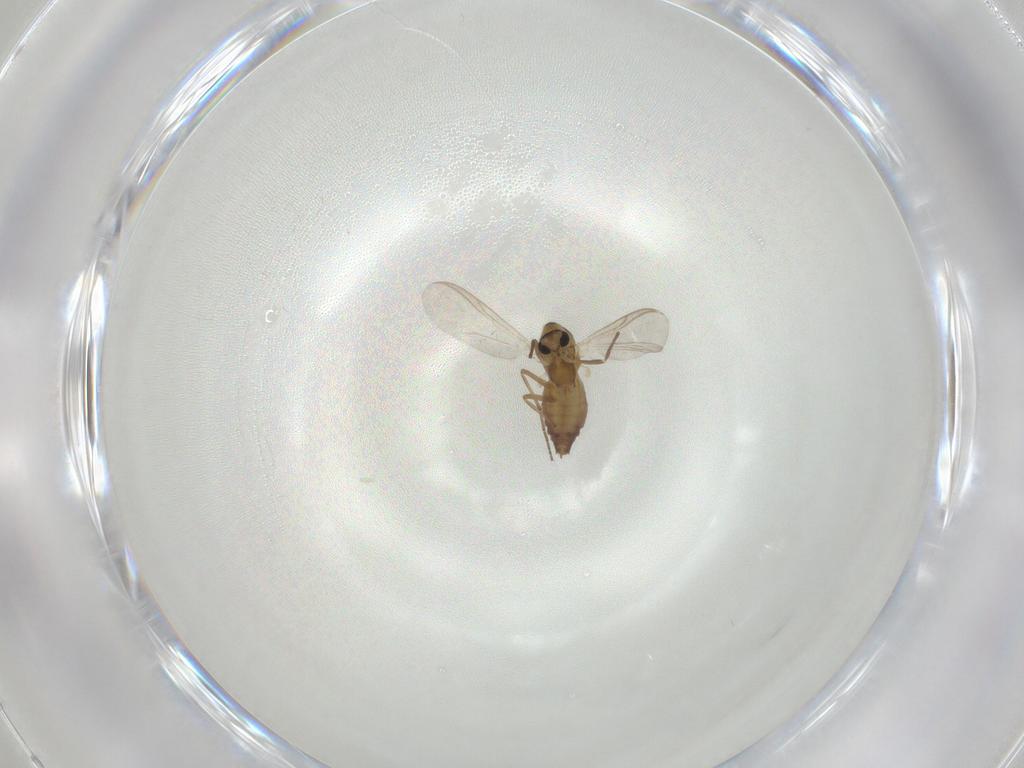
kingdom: Animalia
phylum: Arthropoda
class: Insecta
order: Diptera
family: Chironomidae
